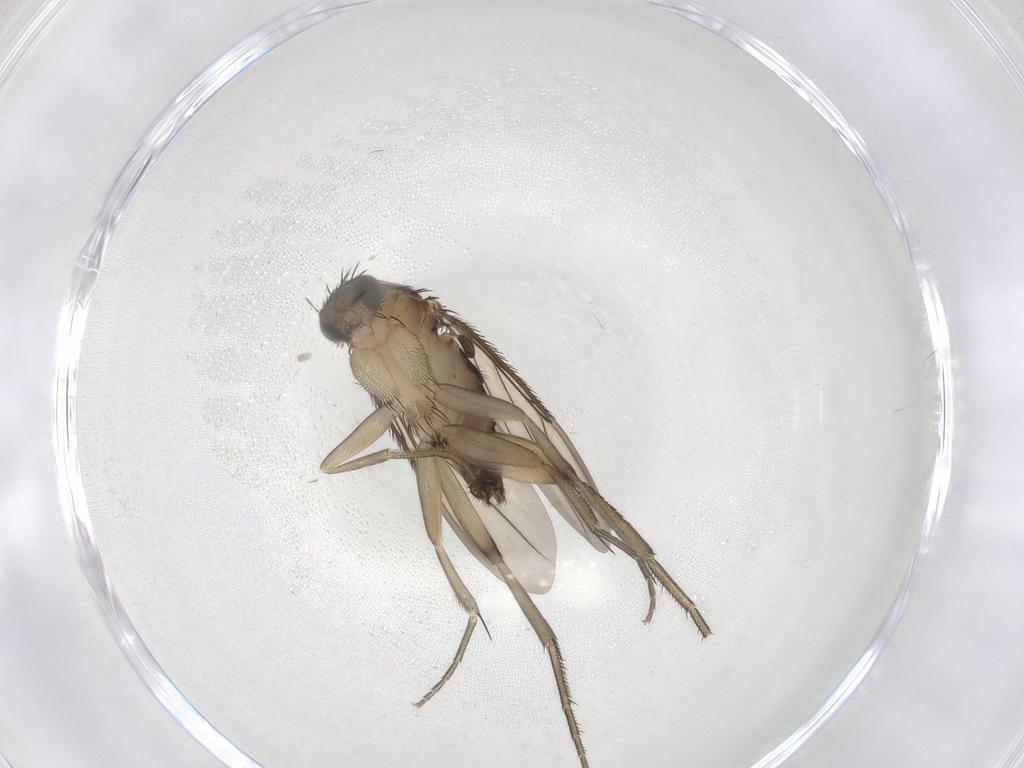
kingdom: Animalia
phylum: Arthropoda
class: Insecta
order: Diptera
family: Phoridae
